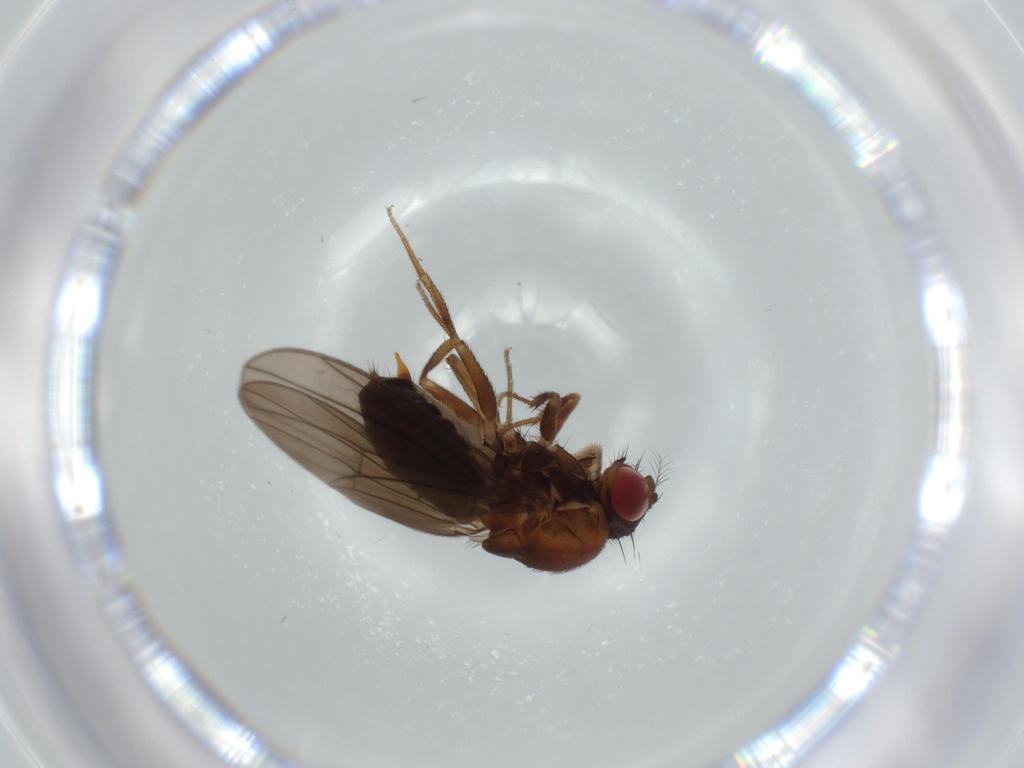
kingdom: Animalia
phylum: Arthropoda
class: Insecta
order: Diptera
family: Drosophilidae
